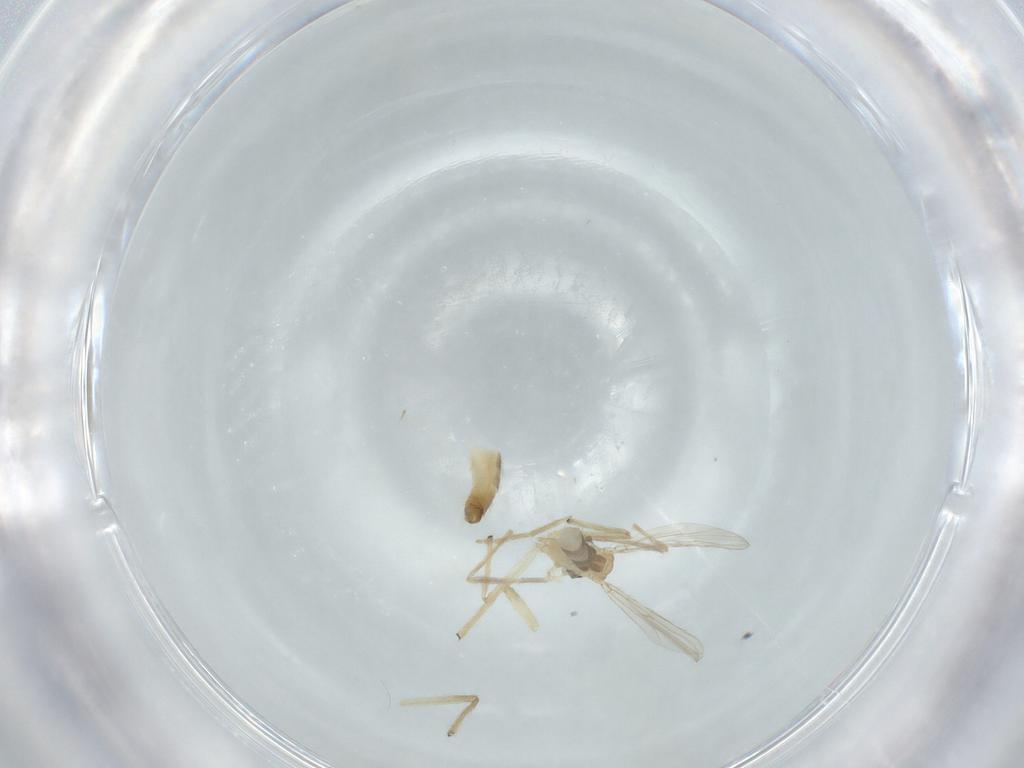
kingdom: Animalia
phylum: Arthropoda
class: Insecta
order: Diptera
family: Chironomidae
